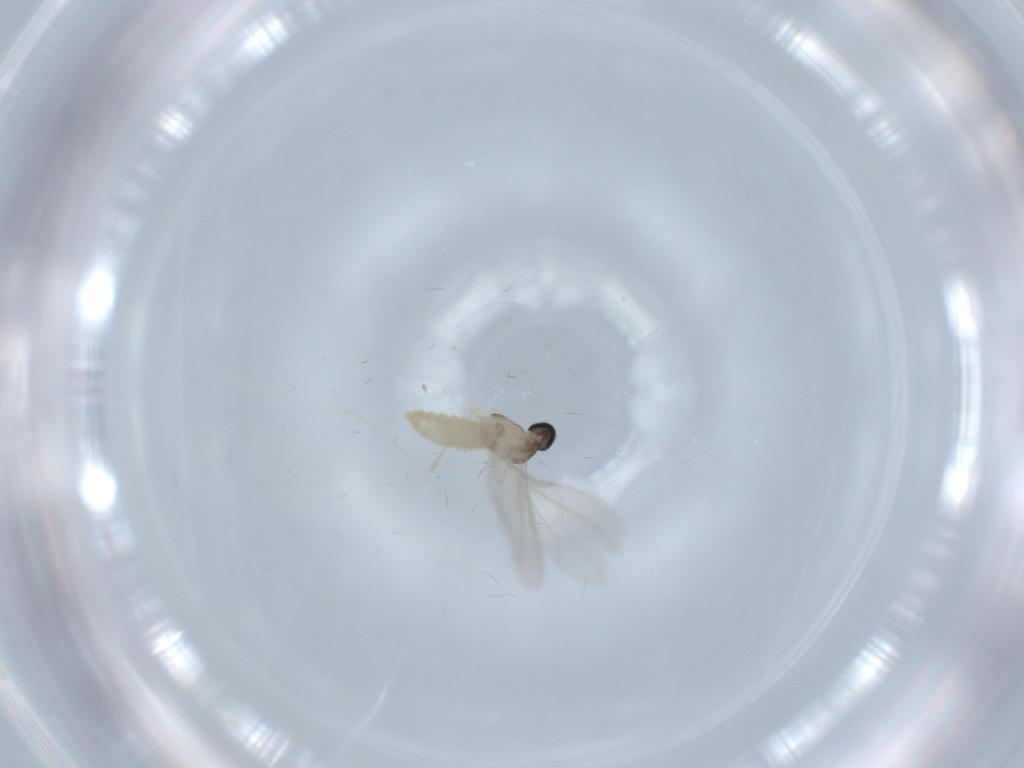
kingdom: Animalia
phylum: Arthropoda
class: Insecta
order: Diptera
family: Cecidomyiidae
